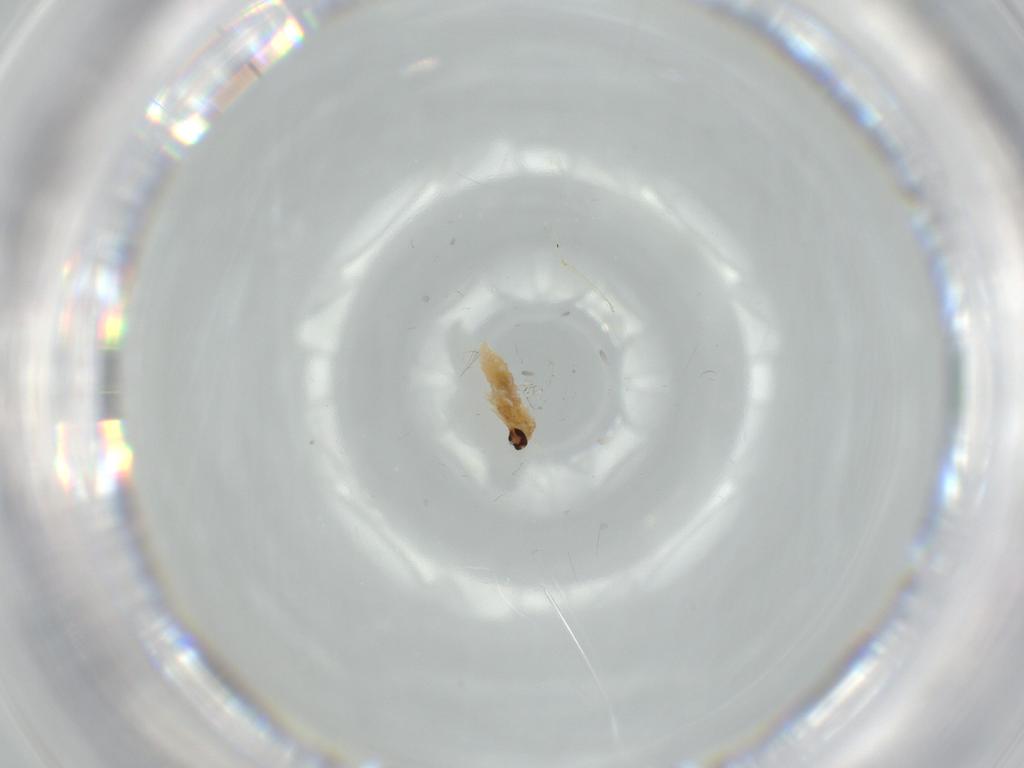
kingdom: Animalia
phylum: Arthropoda
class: Insecta
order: Diptera
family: Cecidomyiidae
